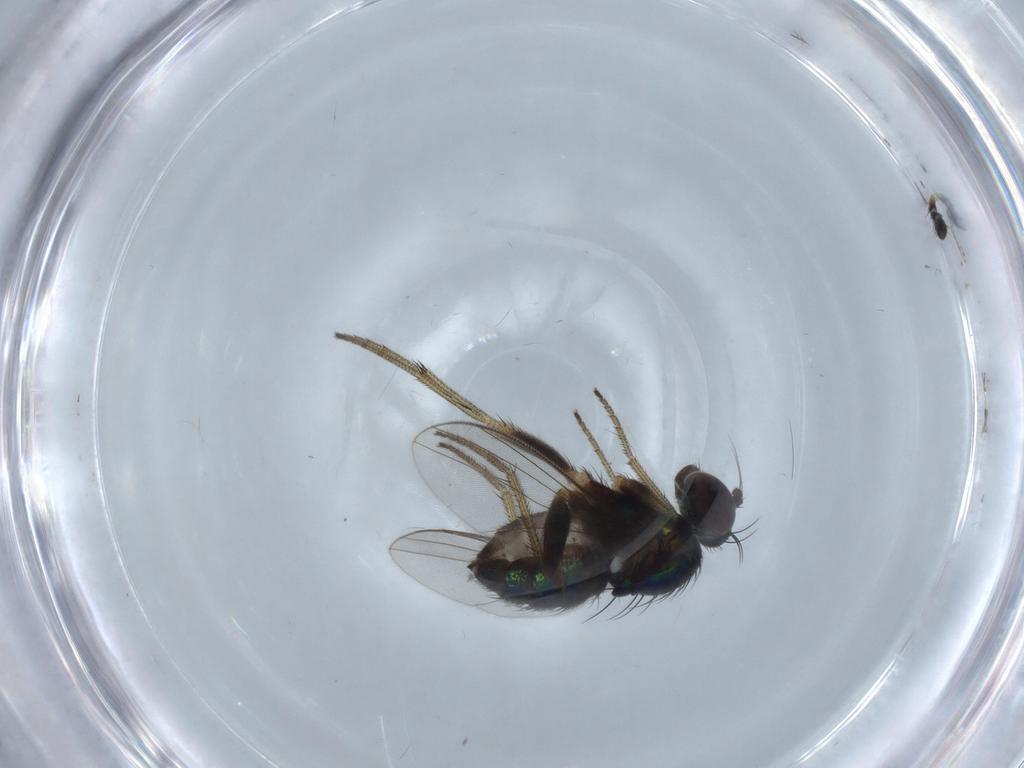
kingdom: Animalia
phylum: Arthropoda
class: Insecta
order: Diptera
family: Dolichopodidae
